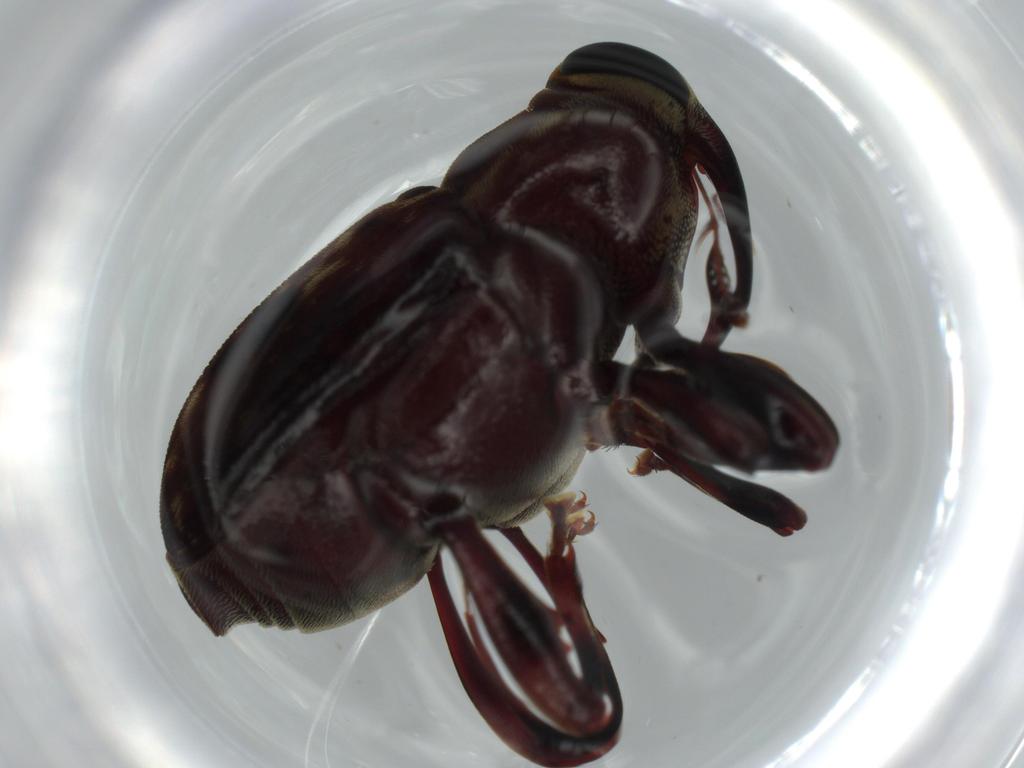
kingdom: Animalia
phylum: Arthropoda
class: Insecta
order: Coleoptera
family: Curculionidae
